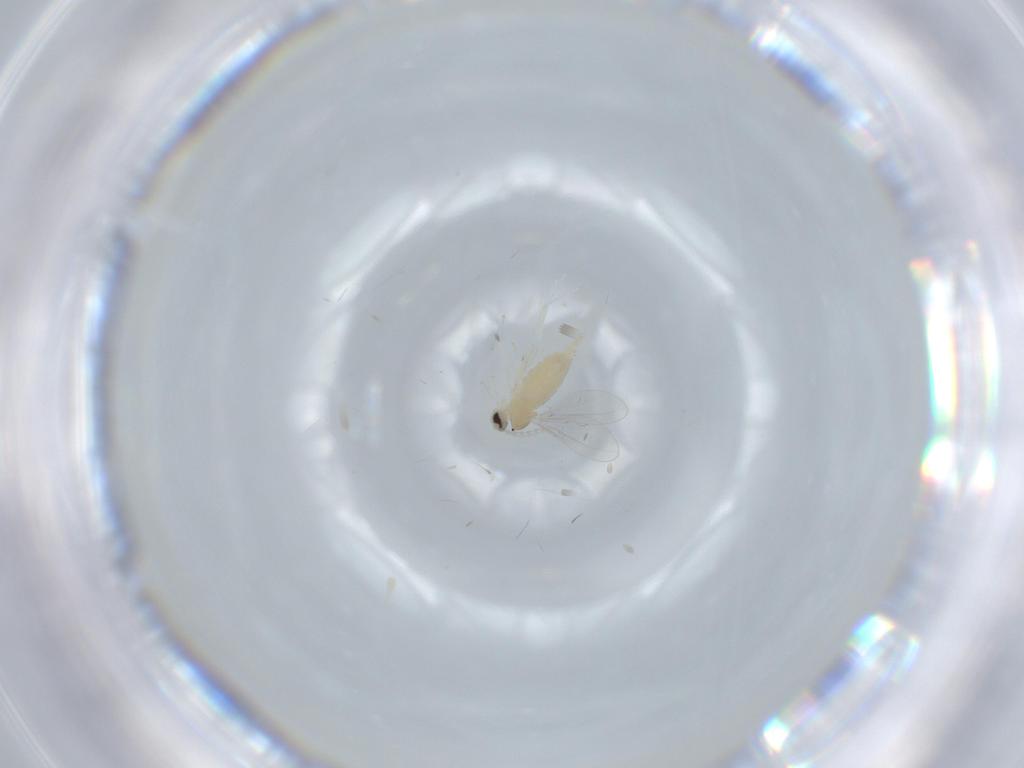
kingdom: Animalia
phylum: Arthropoda
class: Insecta
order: Diptera
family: Cecidomyiidae
